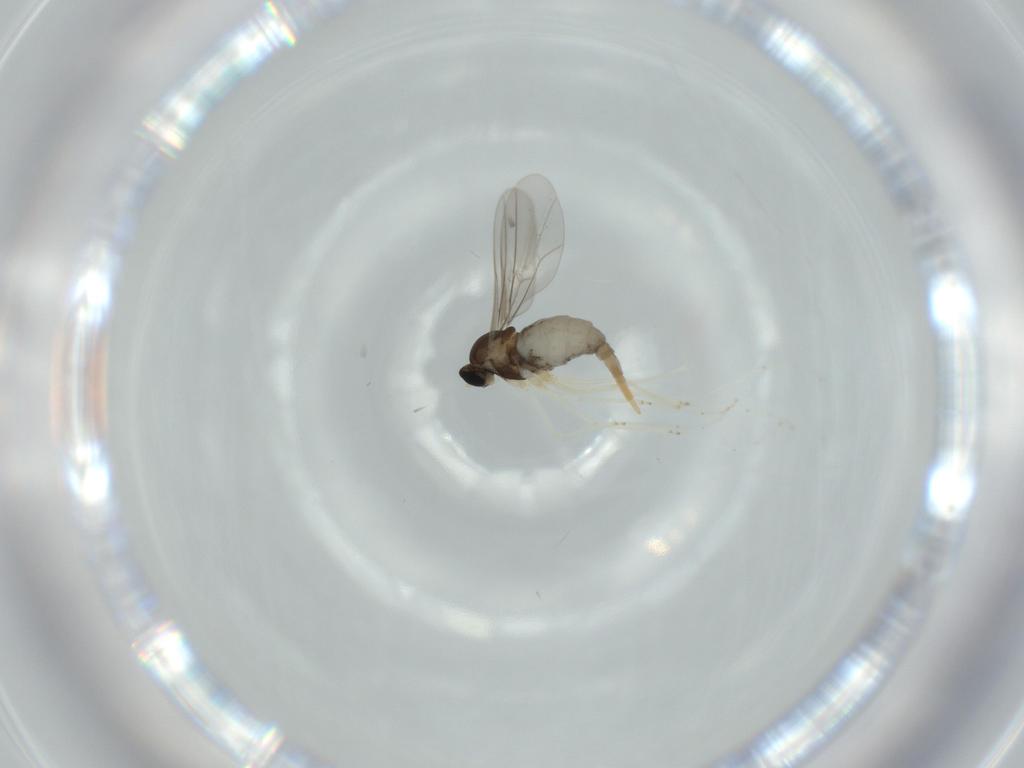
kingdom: Animalia
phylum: Arthropoda
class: Insecta
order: Diptera
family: Cecidomyiidae
